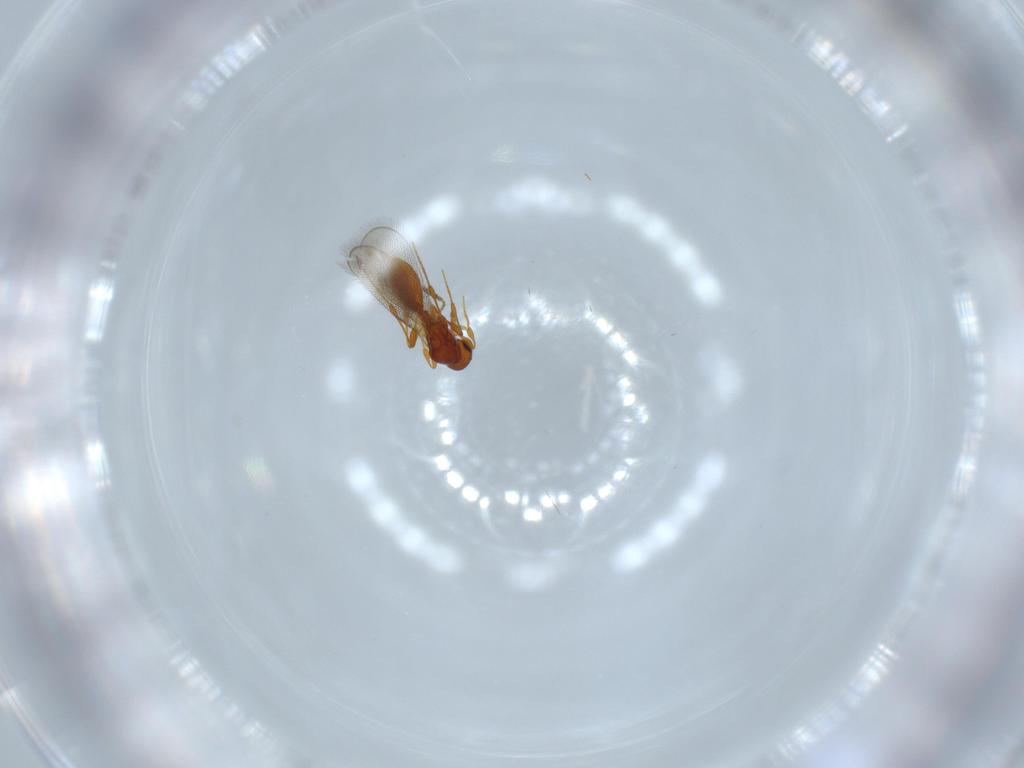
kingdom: Animalia
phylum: Arthropoda
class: Insecta
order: Hymenoptera
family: Platygastridae
